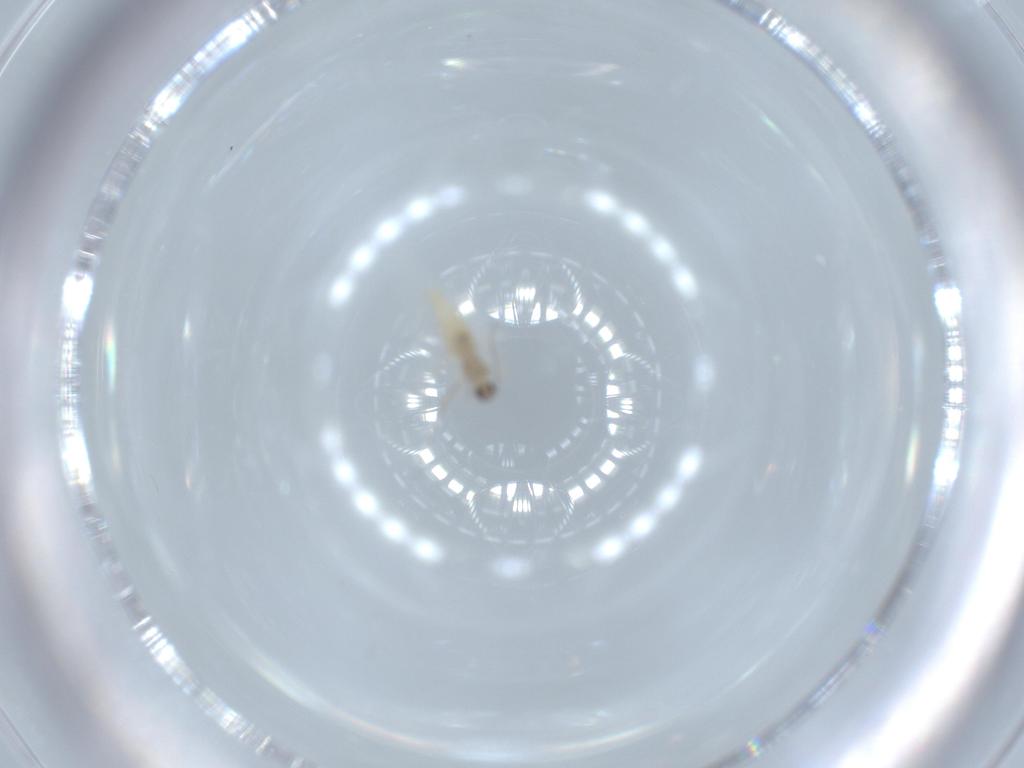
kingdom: Animalia
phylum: Arthropoda
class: Insecta
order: Diptera
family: Cecidomyiidae
